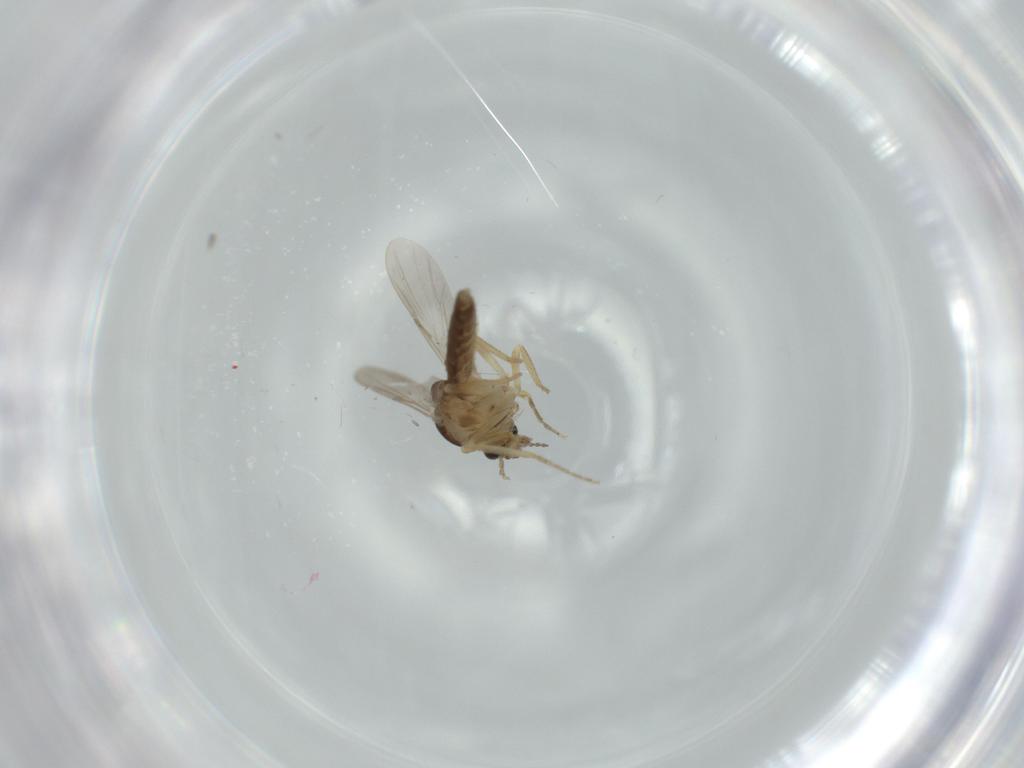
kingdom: Animalia
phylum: Arthropoda
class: Insecta
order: Diptera
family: Ceratopogonidae
